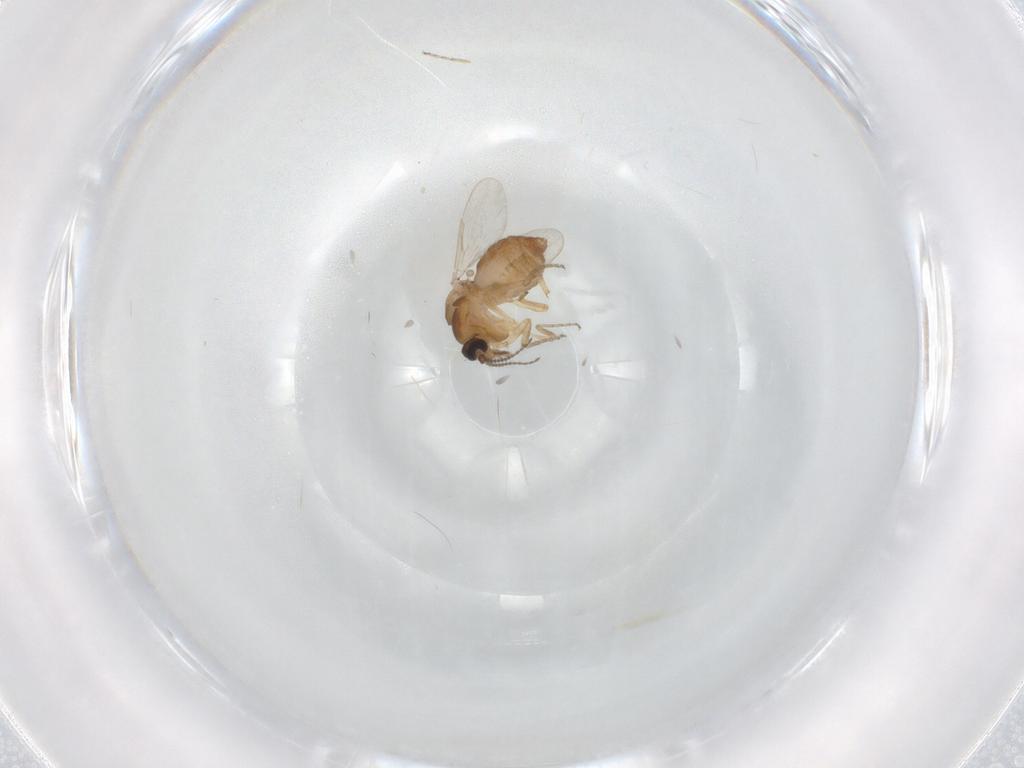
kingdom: Animalia
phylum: Arthropoda
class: Insecta
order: Diptera
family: Ceratopogonidae
